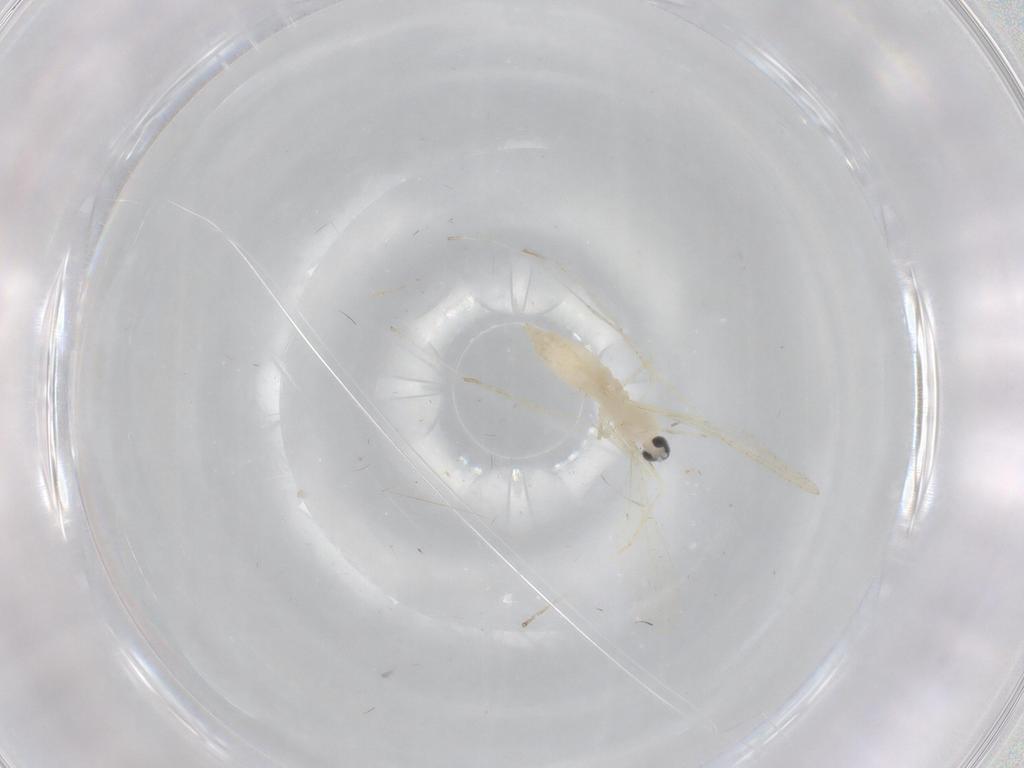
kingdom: Animalia
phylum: Arthropoda
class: Insecta
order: Diptera
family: Cecidomyiidae
